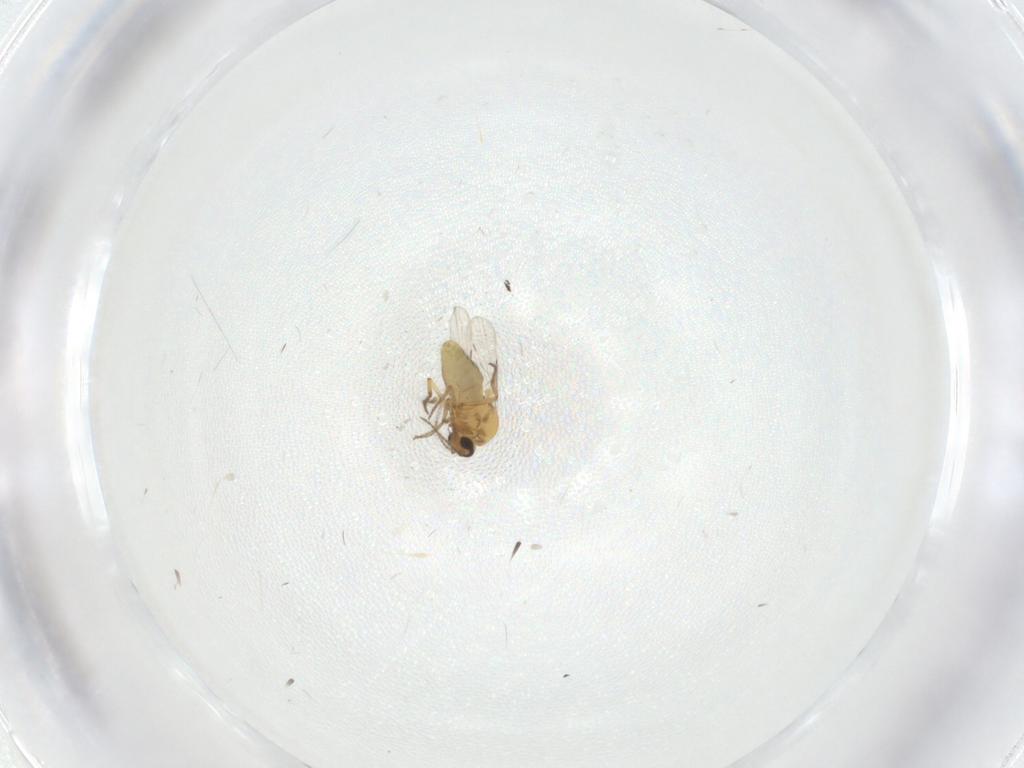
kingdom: Animalia
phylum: Arthropoda
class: Insecta
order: Diptera
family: Ceratopogonidae
